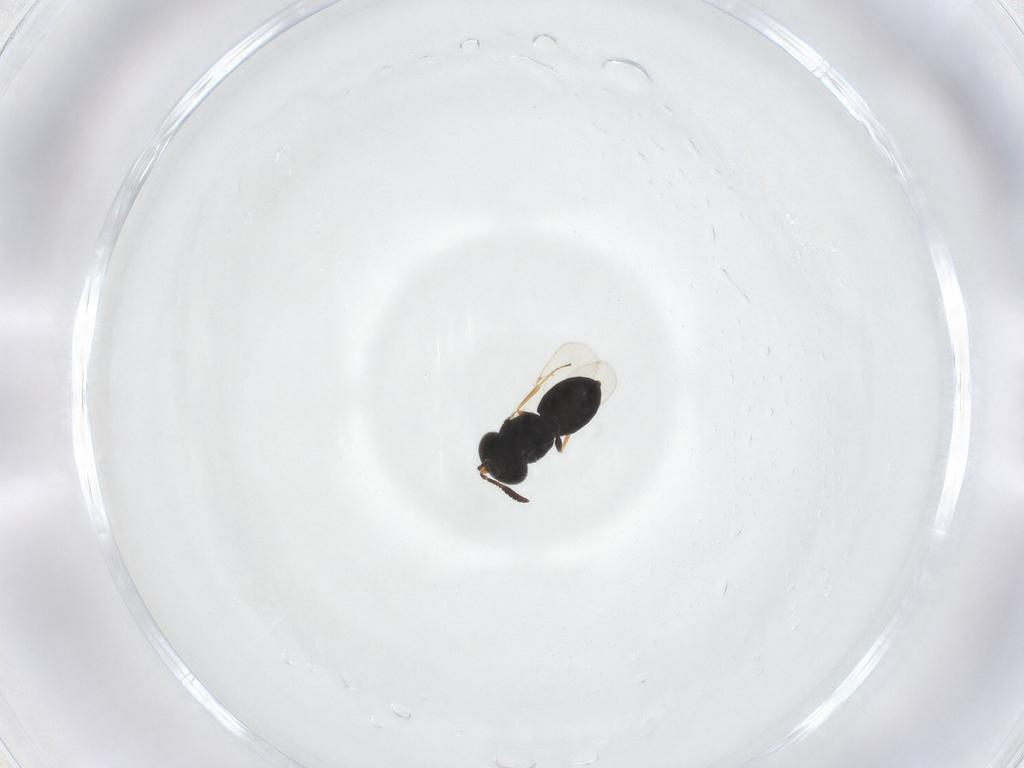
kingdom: Animalia
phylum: Arthropoda
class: Insecta
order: Hymenoptera
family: Scelionidae
